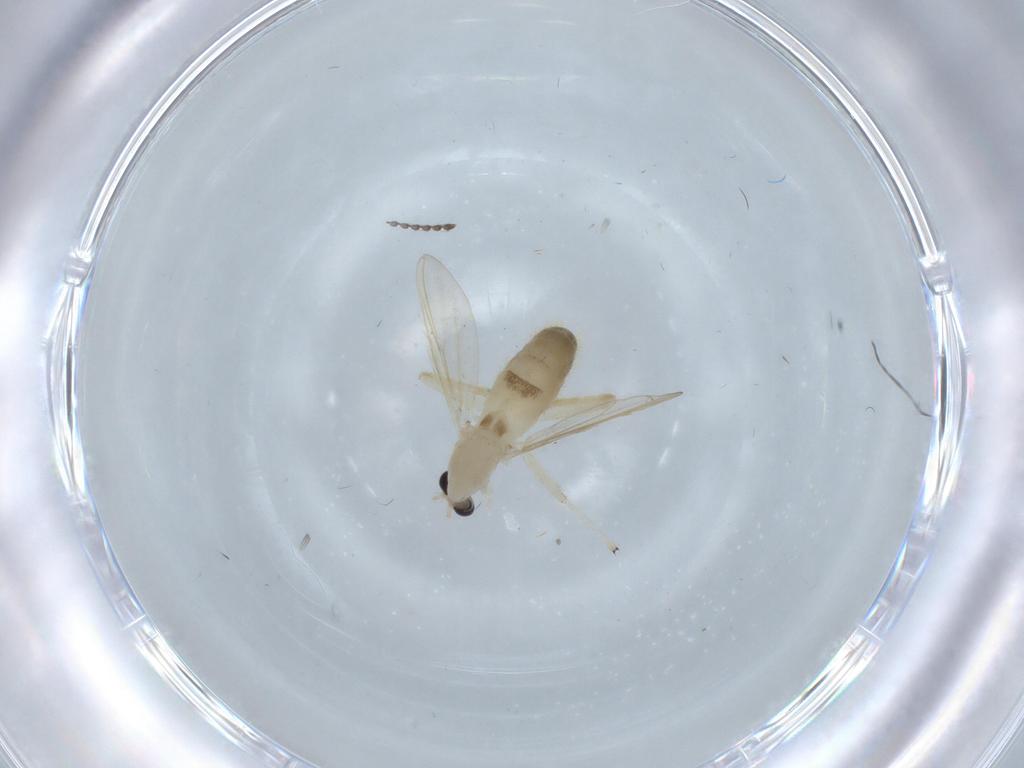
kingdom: Animalia
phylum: Arthropoda
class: Insecta
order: Diptera
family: Chironomidae
